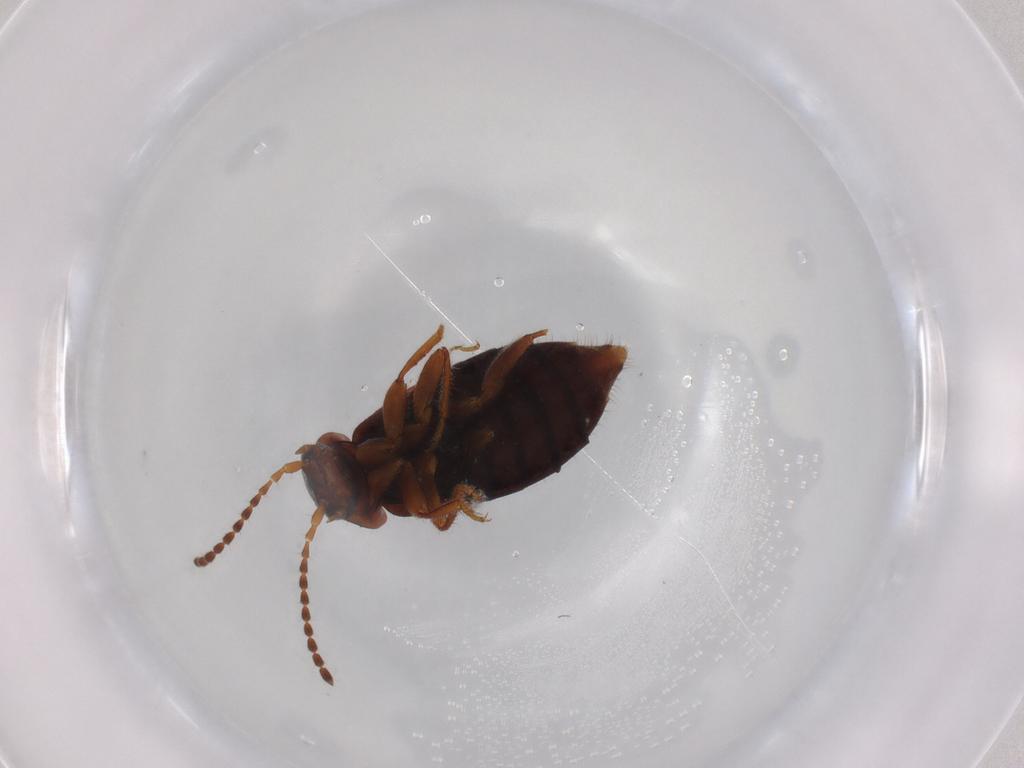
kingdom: Animalia
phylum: Arthropoda
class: Insecta
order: Coleoptera
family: Staphylinidae
